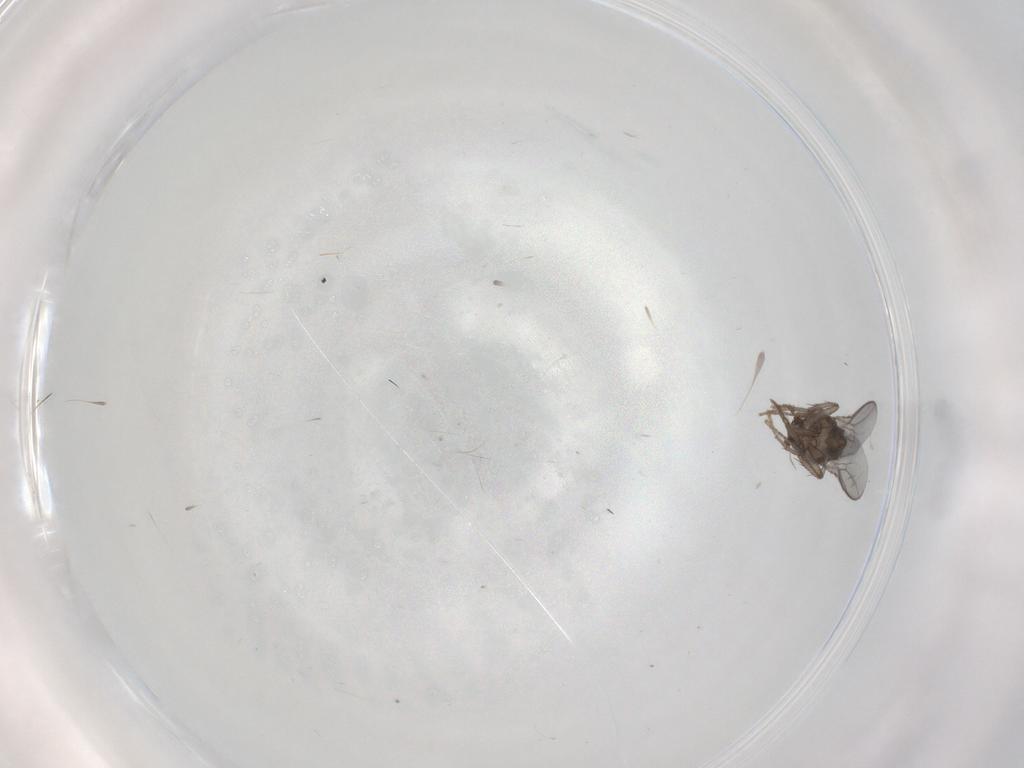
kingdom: Animalia
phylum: Arthropoda
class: Insecta
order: Diptera
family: Sphaeroceridae
